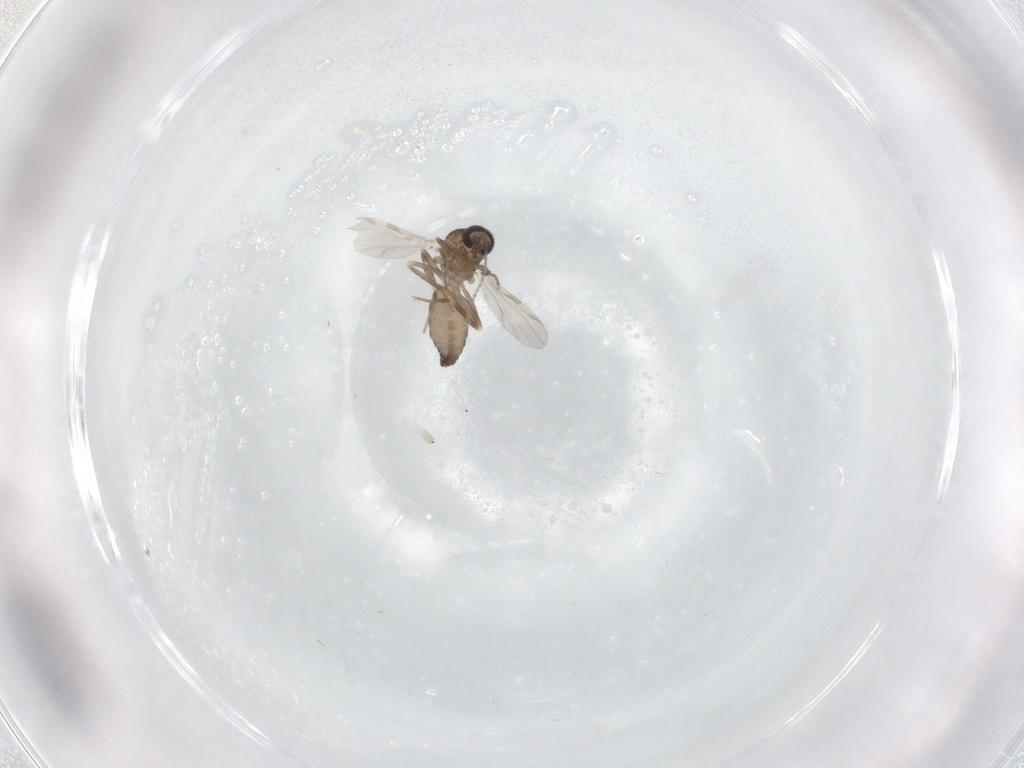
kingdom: Animalia
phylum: Arthropoda
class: Insecta
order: Diptera
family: Ceratopogonidae
